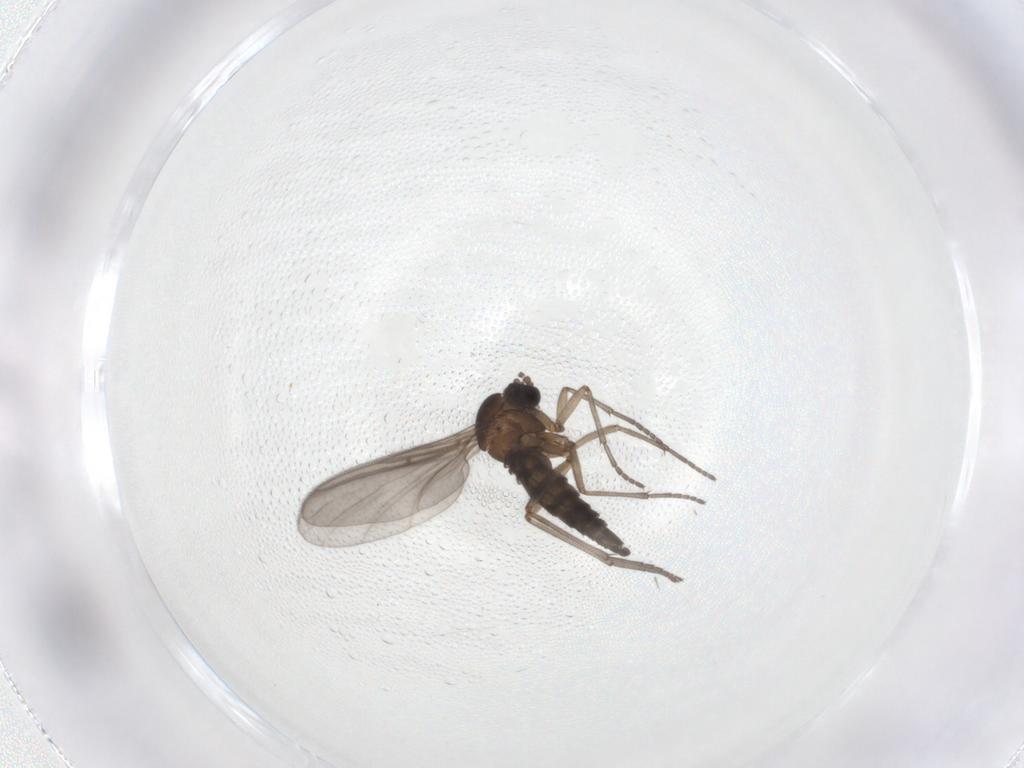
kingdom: Animalia
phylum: Arthropoda
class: Insecta
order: Diptera
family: Sciaridae
